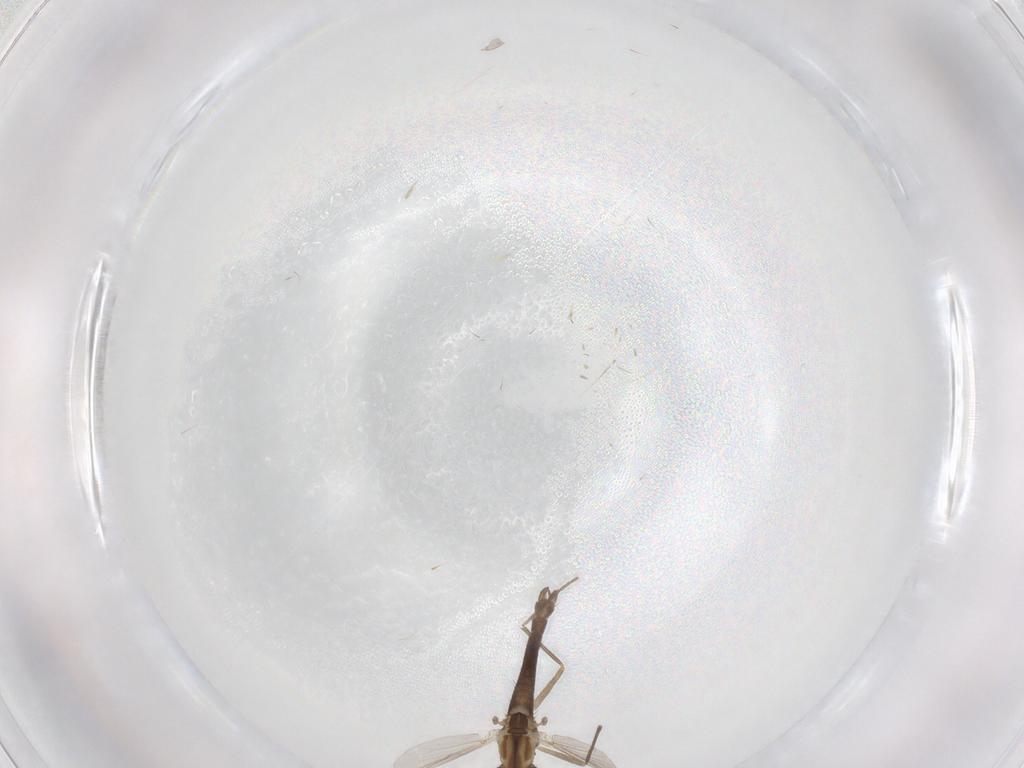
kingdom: Animalia
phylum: Arthropoda
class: Insecta
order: Diptera
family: Chironomidae
